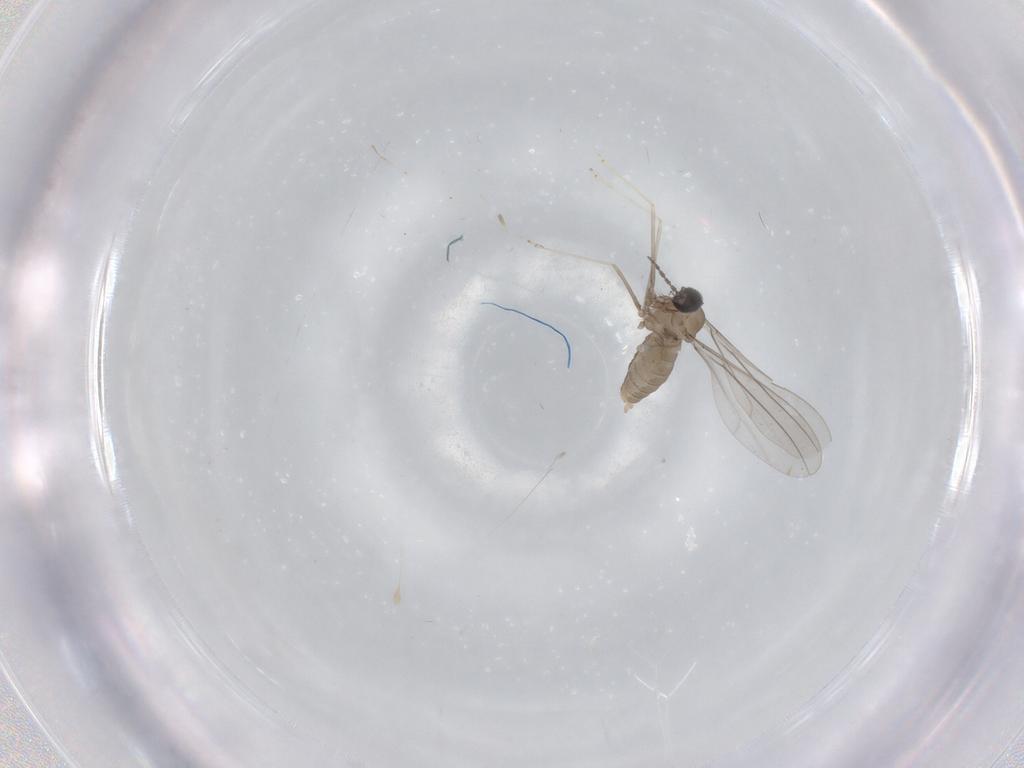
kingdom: Animalia
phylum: Arthropoda
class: Insecta
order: Diptera
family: Cecidomyiidae
